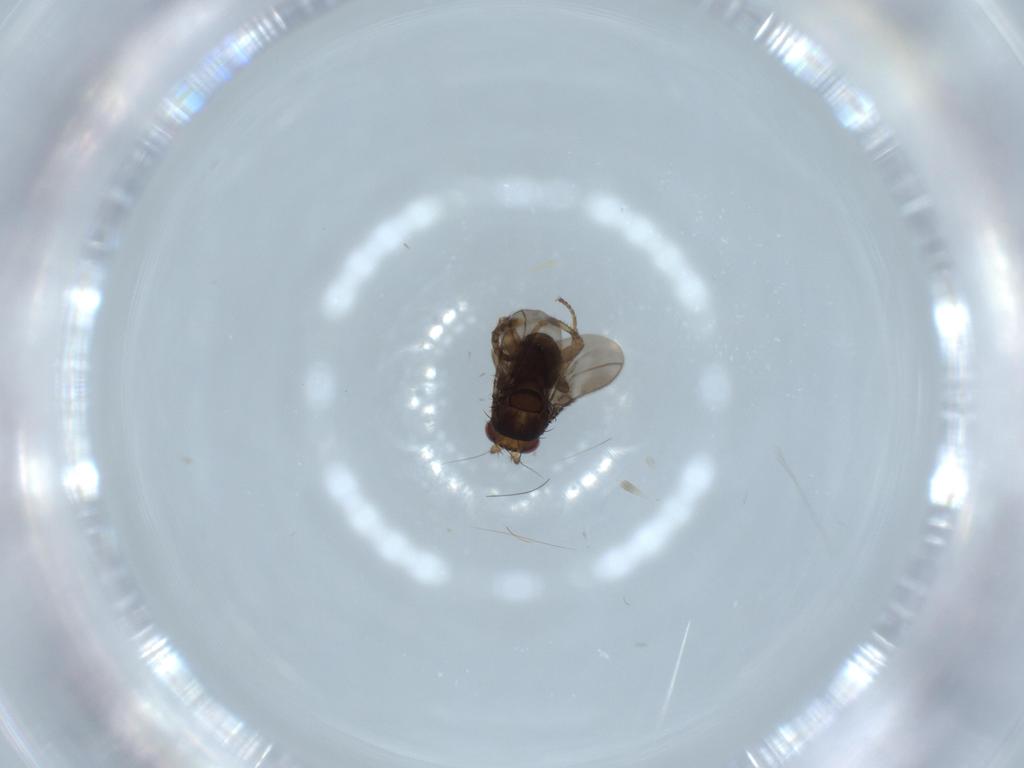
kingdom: Animalia
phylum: Arthropoda
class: Insecta
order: Diptera
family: Sphaeroceridae
